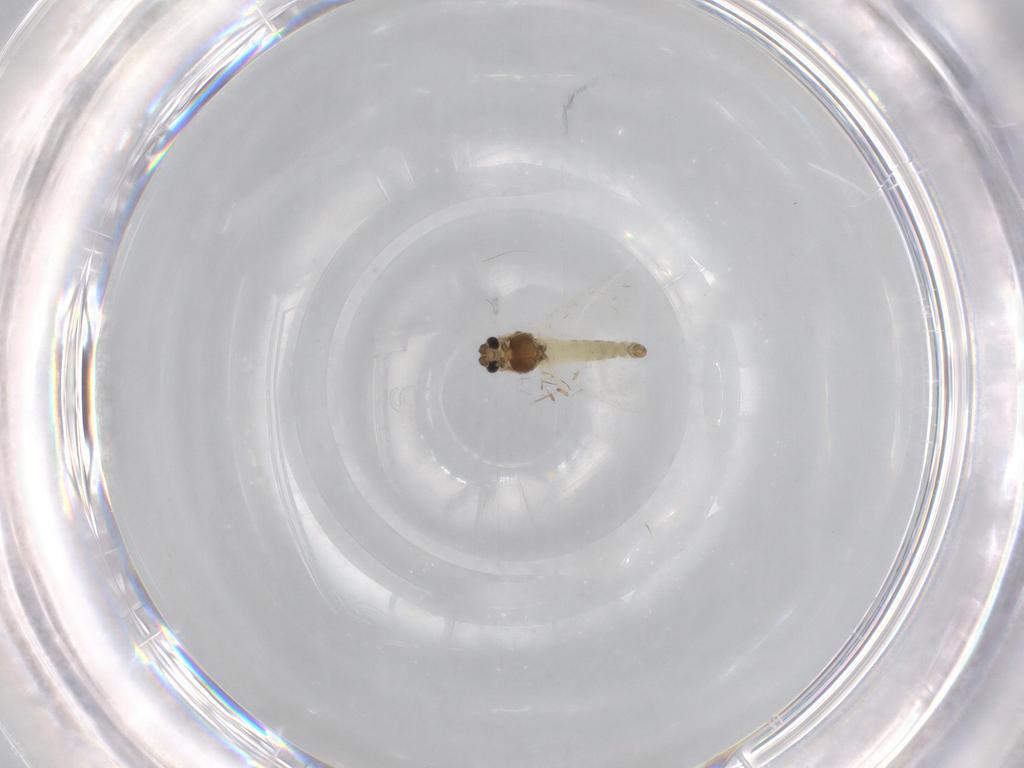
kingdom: Animalia
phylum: Arthropoda
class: Insecta
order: Diptera
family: Chironomidae
